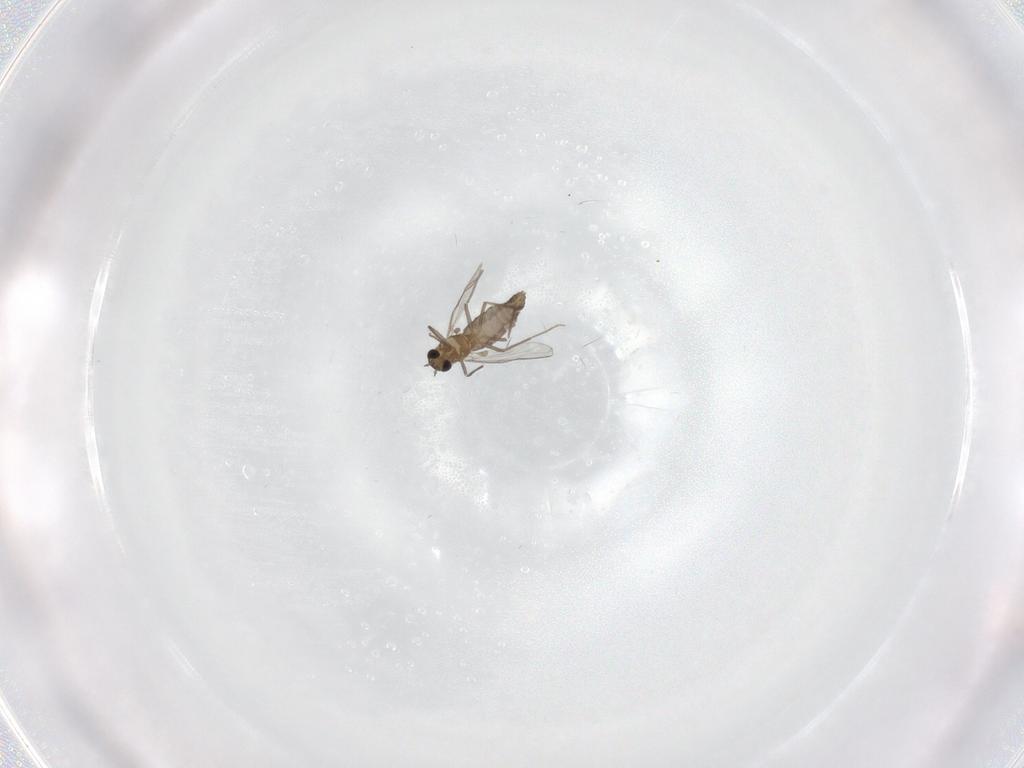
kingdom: Animalia
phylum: Arthropoda
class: Insecta
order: Diptera
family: Chironomidae
